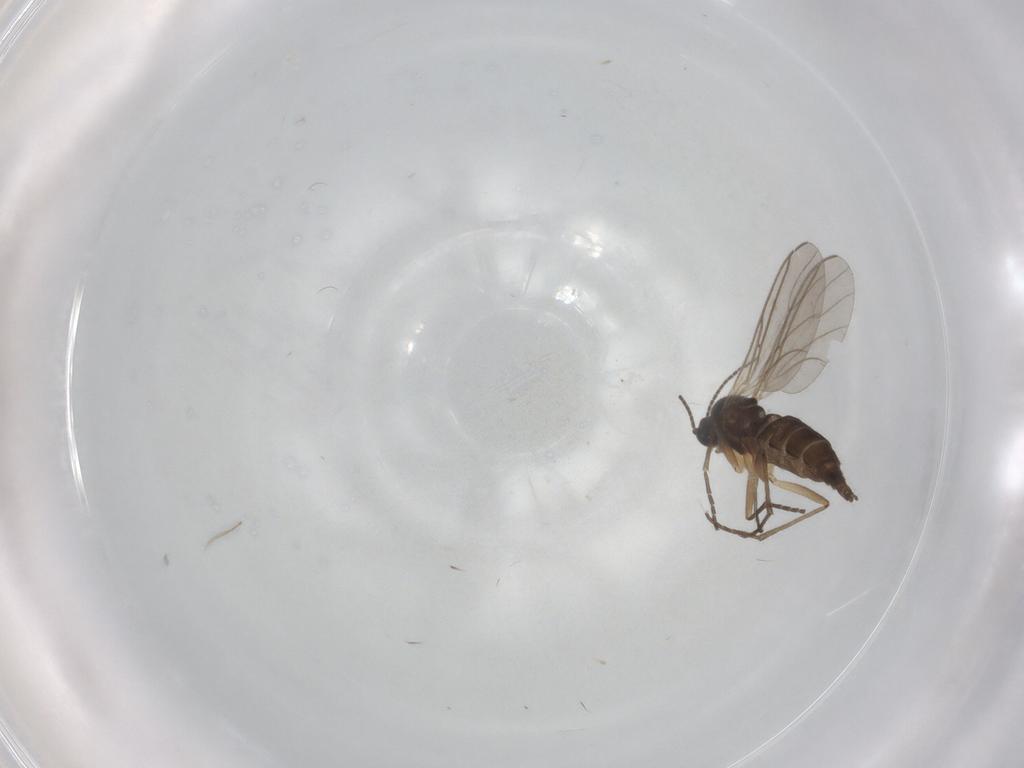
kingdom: Animalia
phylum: Arthropoda
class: Insecta
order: Diptera
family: Sciaridae
